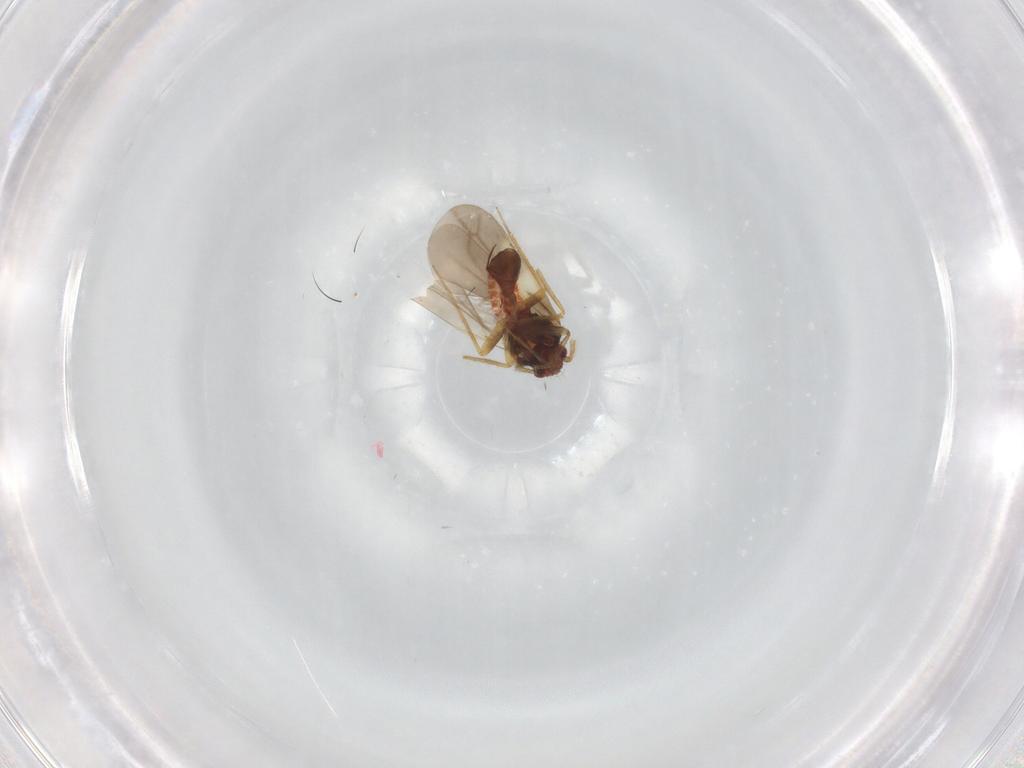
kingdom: Animalia
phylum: Arthropoda
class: Insecta
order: Hemiptera
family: Ceratocombidae
